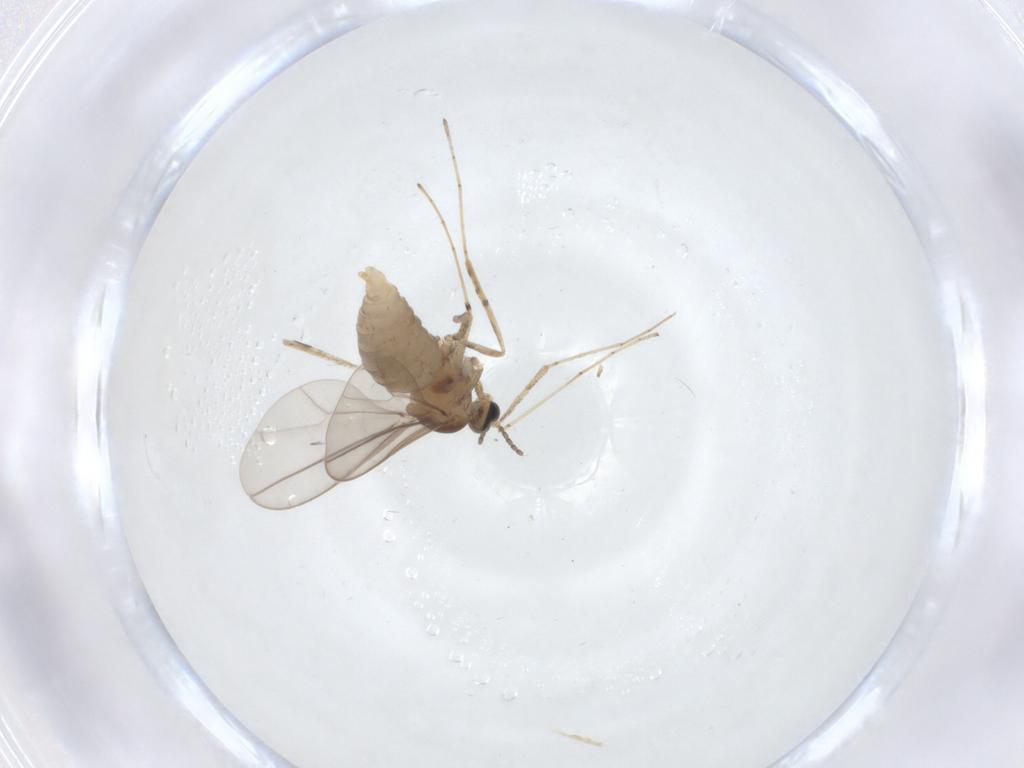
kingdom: Animalia
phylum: Arthropoda
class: Insecta
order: Diptera
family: Cecidomyiidae
